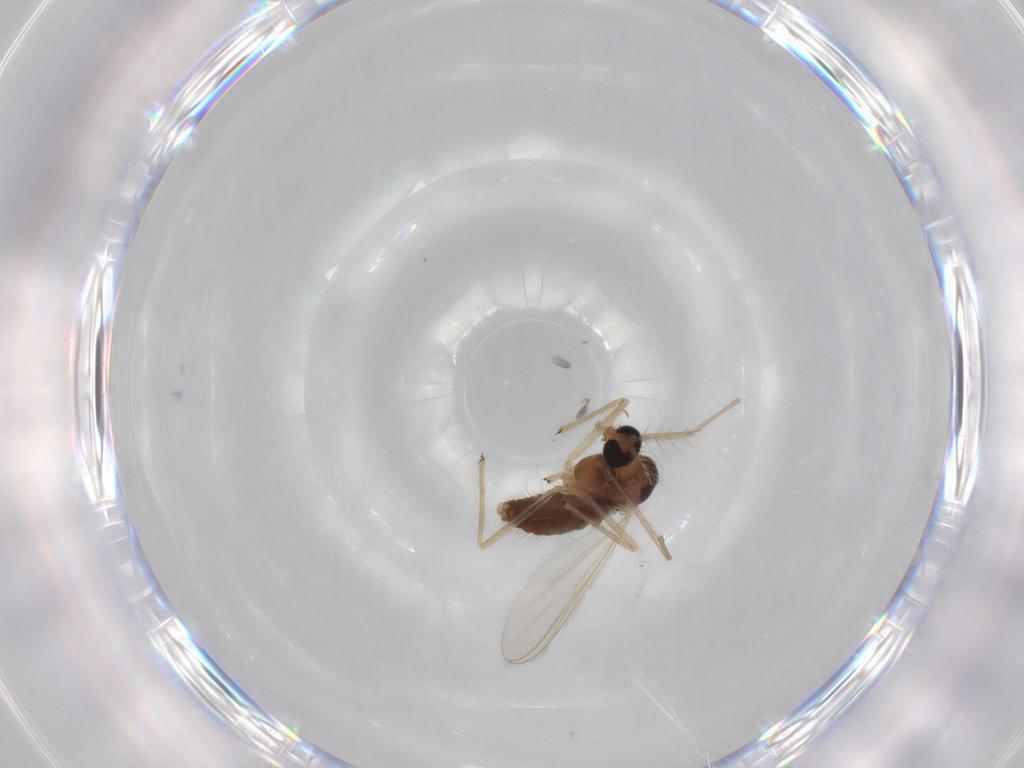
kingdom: Animalia
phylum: Arthropoda
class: Insecta
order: Diptera
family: Chironomidae
